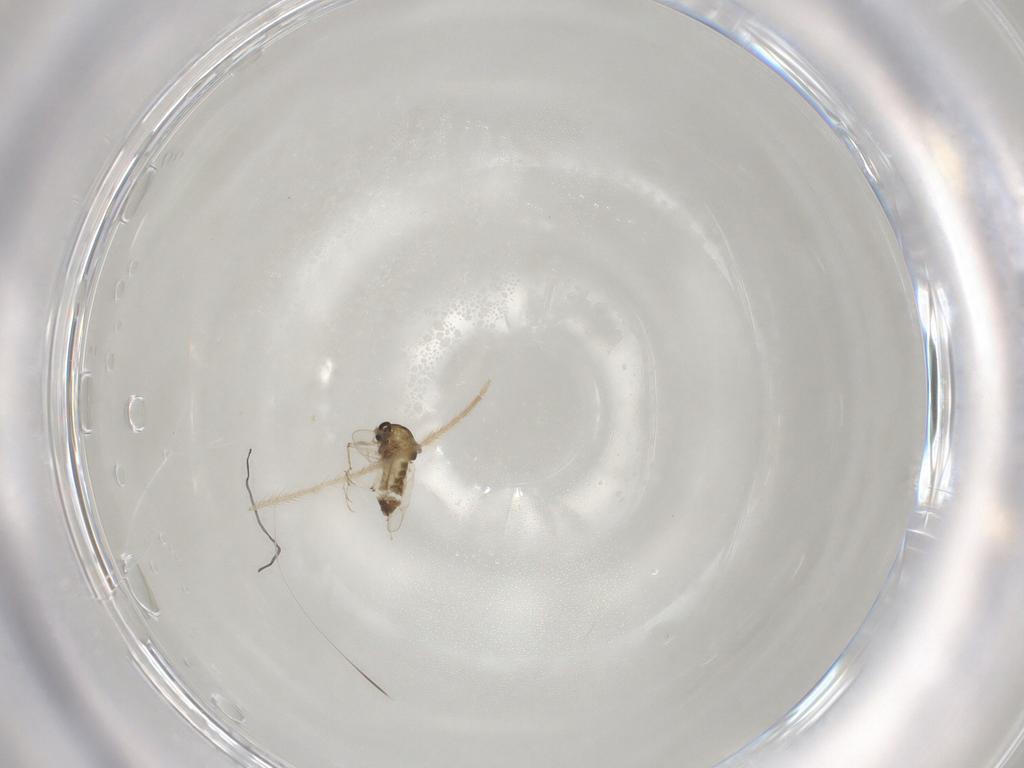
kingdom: Animalia
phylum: Arthropoda
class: Insecta
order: Diptera
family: Chironomidae
